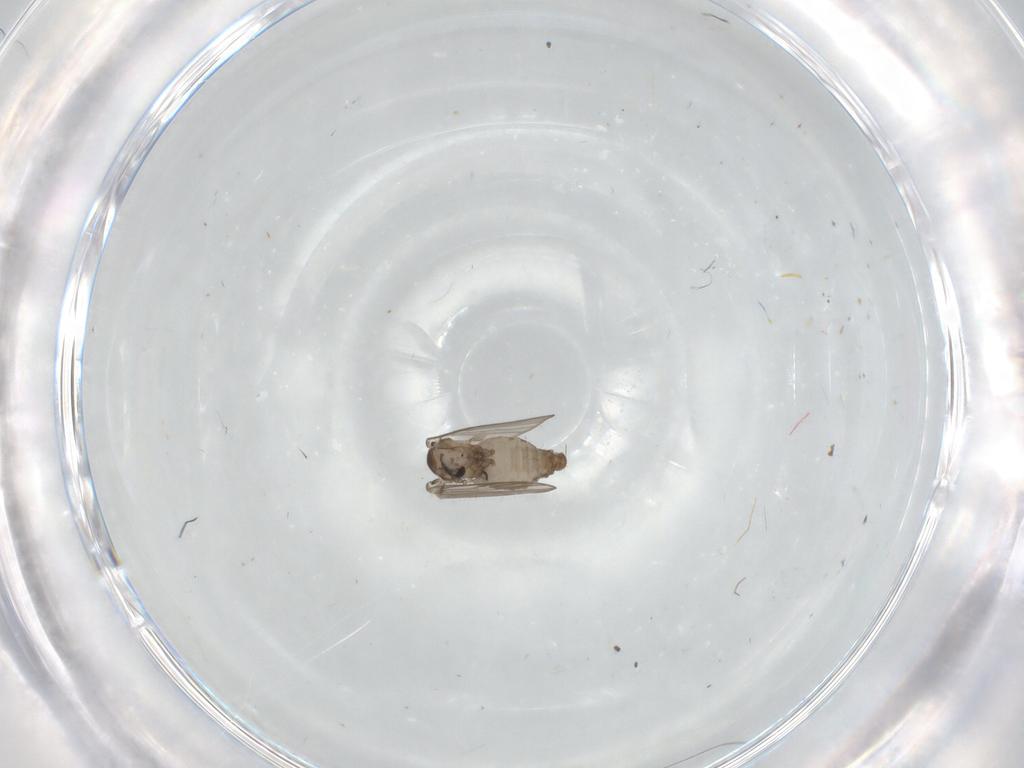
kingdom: Animalia
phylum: Arthropoda
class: Insecta
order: Diptera
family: Psychodidae
